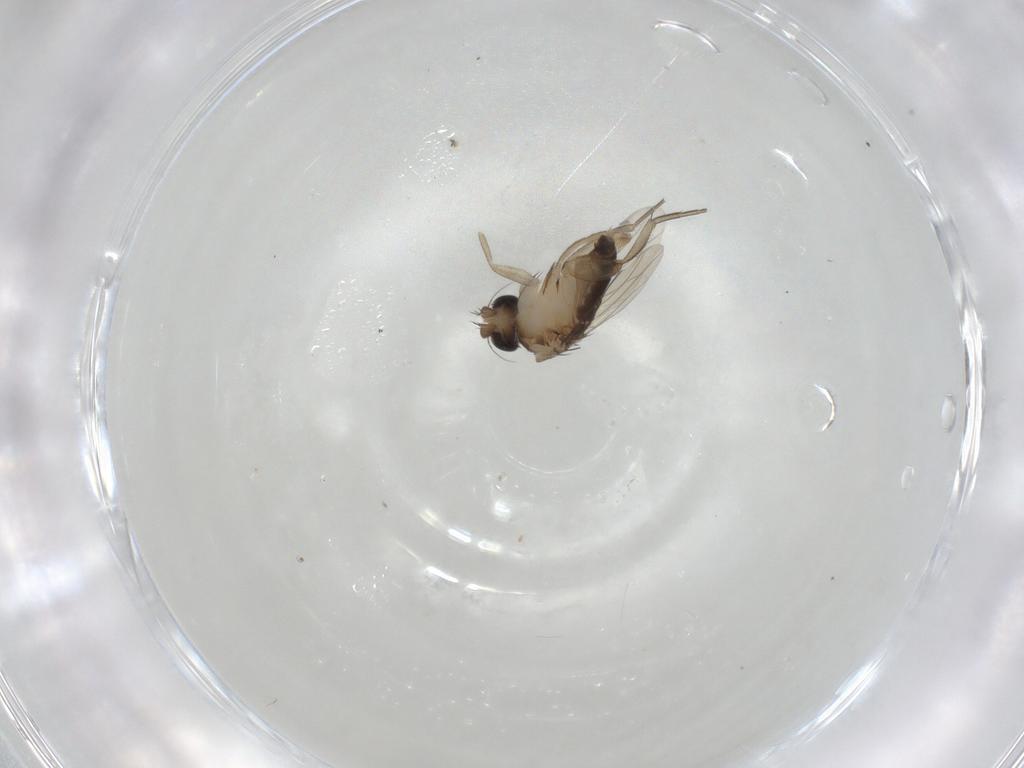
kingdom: Animalia
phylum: Arthropoda
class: Insecta
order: Diptera
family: Phoridae
